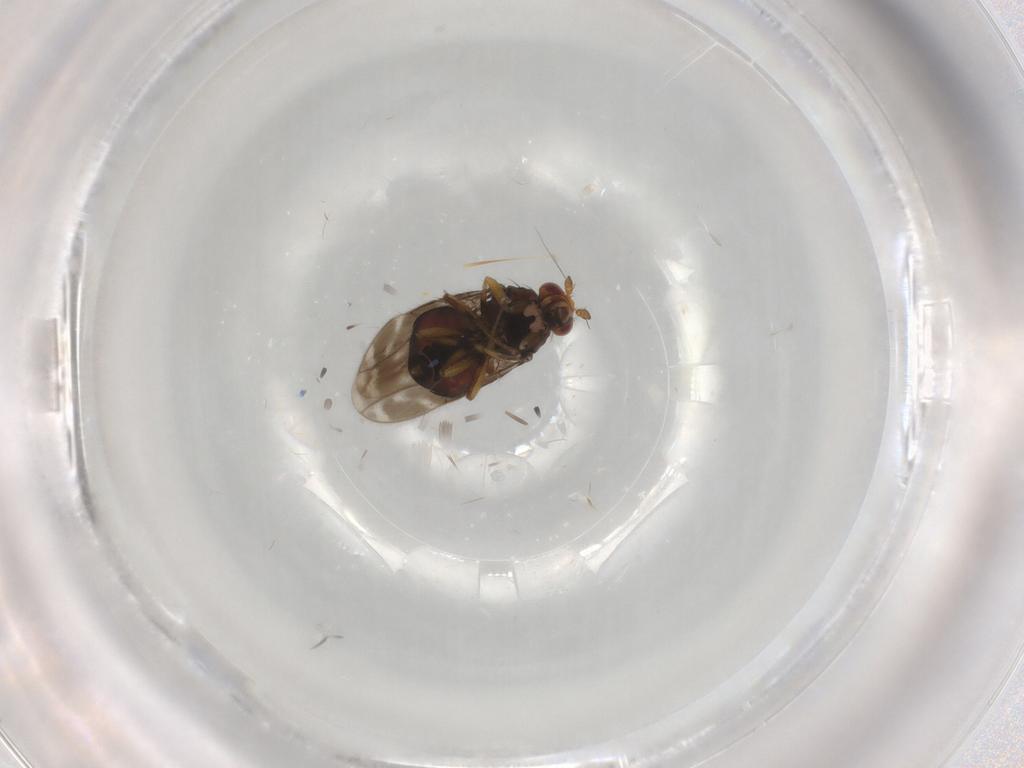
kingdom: Animalia
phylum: Arthropoda
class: Insecta
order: Diptera
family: Sphaeroceridae
